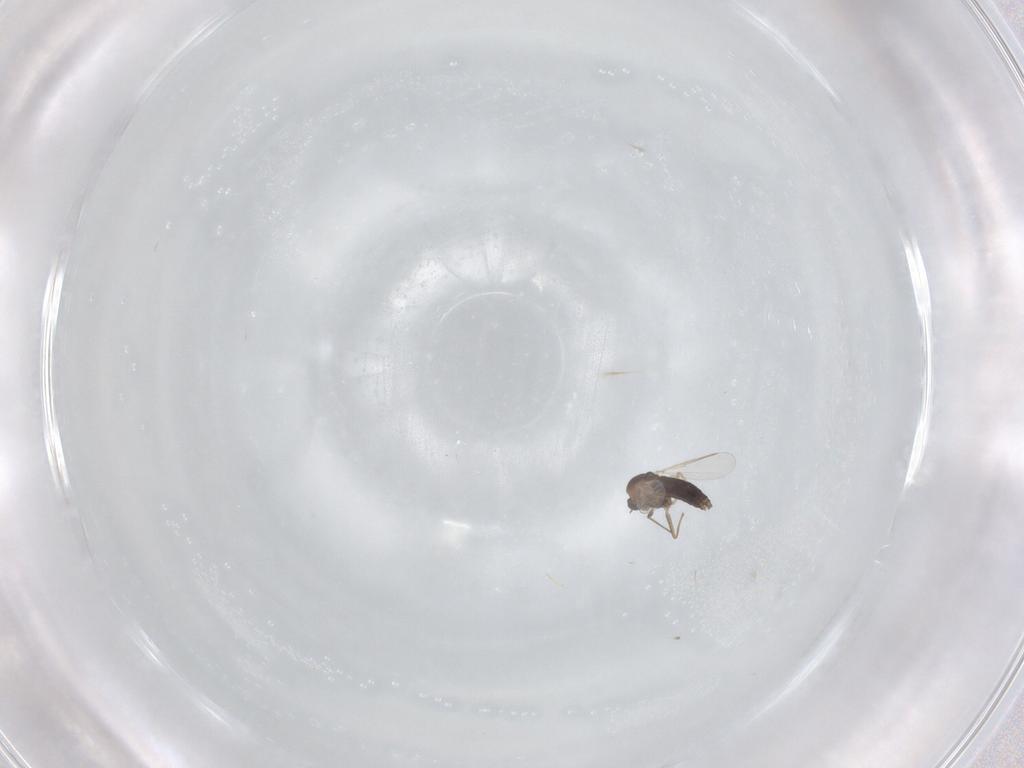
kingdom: Animalia
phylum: Arthropoda
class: Insecta
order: Diptera
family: Chironomidae
